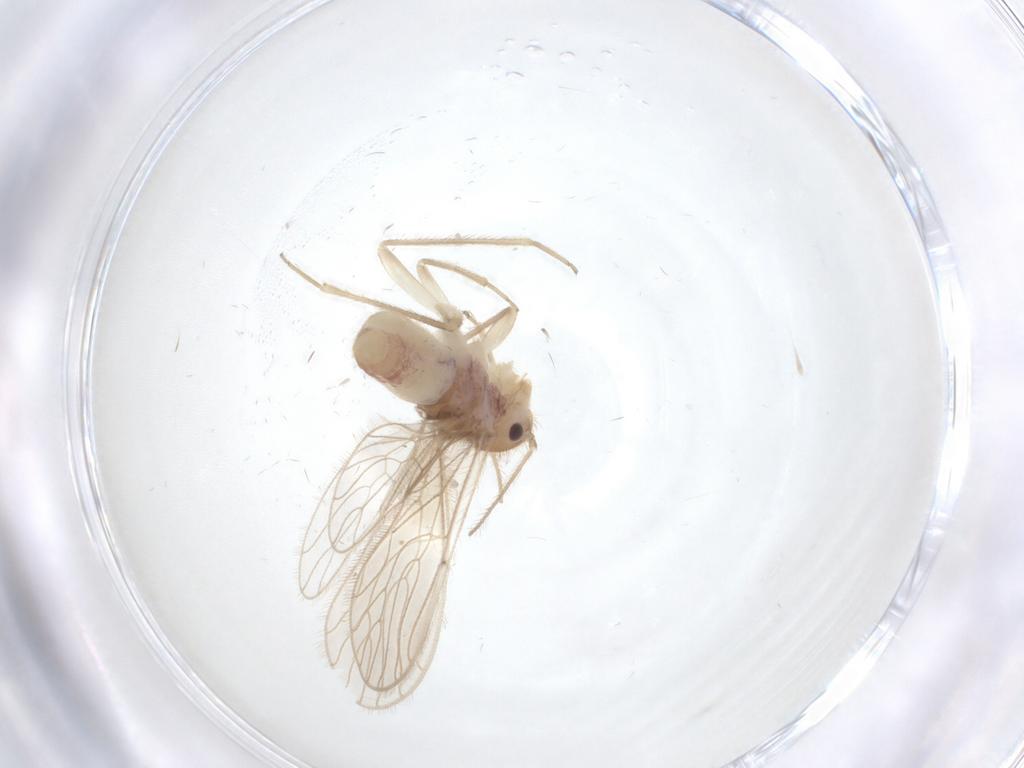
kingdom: Animalia
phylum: Arthropoda
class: Insecta
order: Psocodea
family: Cladiopsocidae
